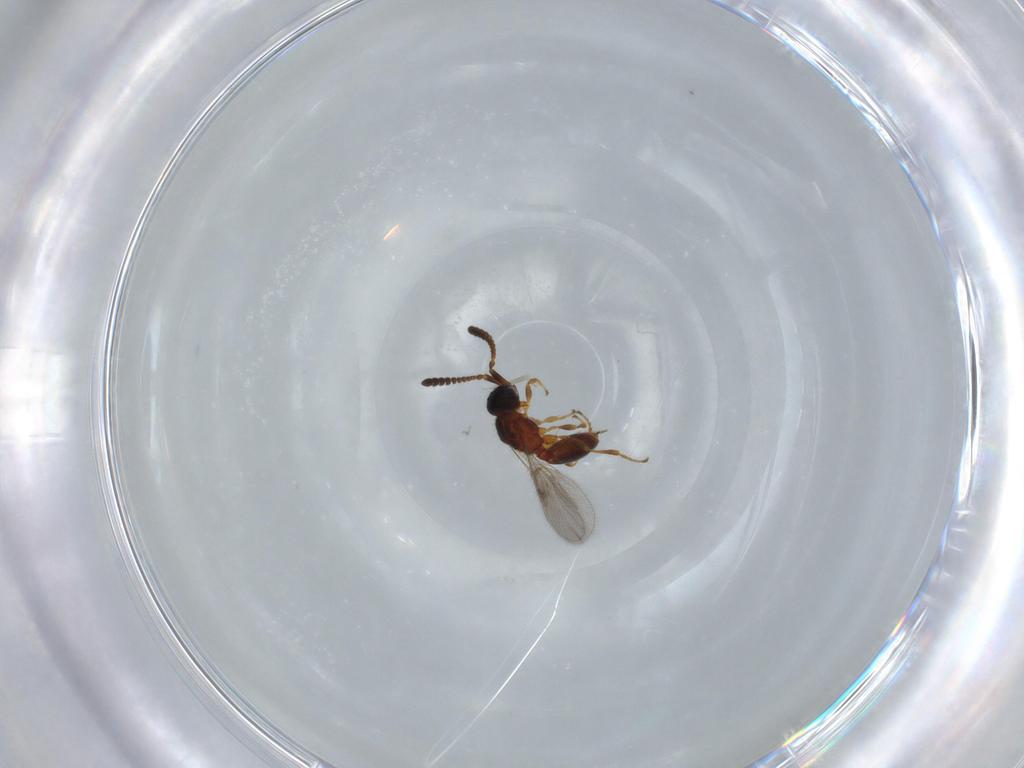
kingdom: Animalia
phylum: Arthropoda
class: Insecta
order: Hymenoptera
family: Diapriidae
